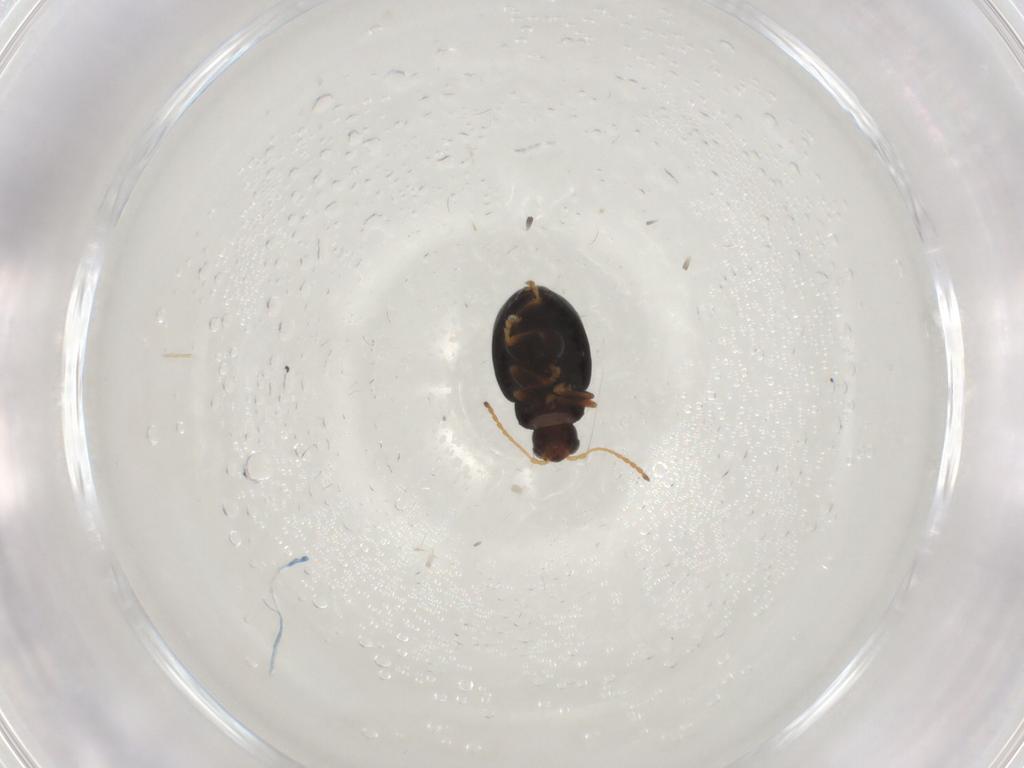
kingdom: Animalia
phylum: Arthropoda
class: Insecta
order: Coleoptera
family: Chrysomelidae
